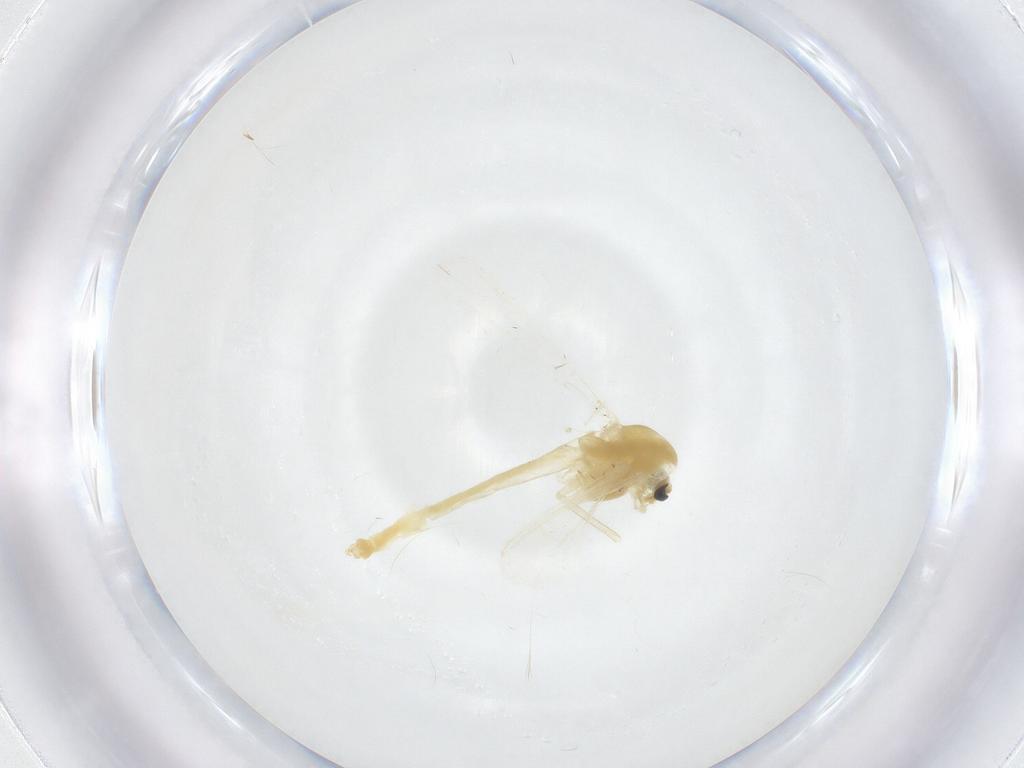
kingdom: Animalia
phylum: Arthropoda
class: Insecta
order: Diptera
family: Chironomidae
